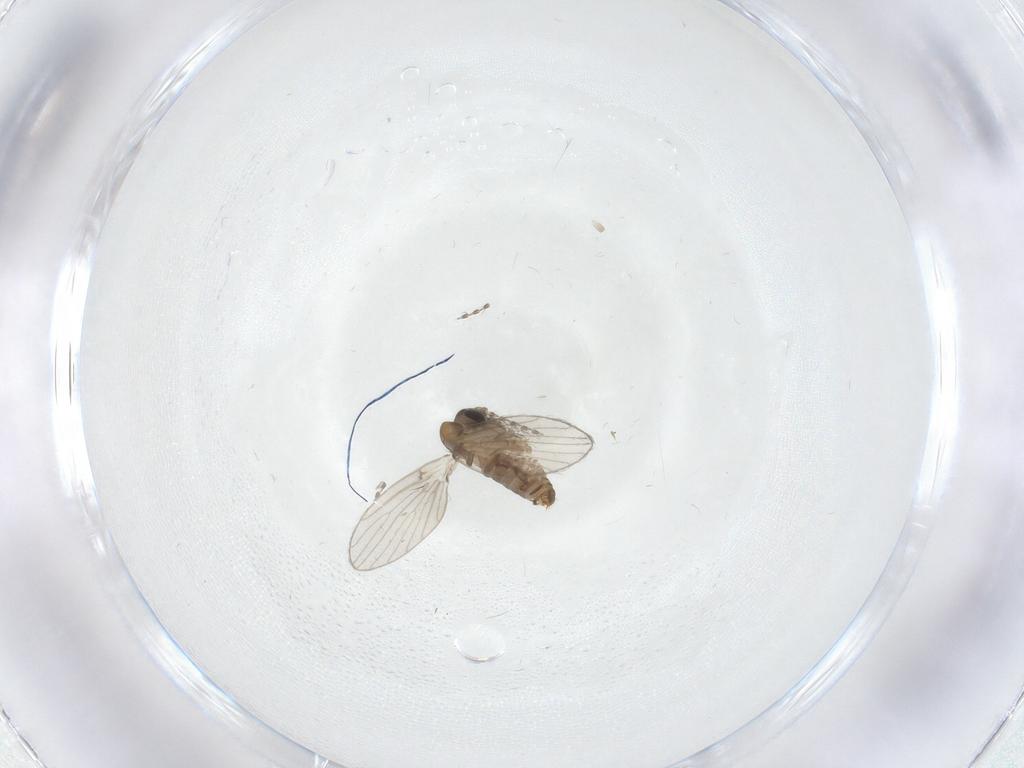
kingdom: Animalia
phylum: Arthropoda
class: Insecta
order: Diptera
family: Psychodidae
